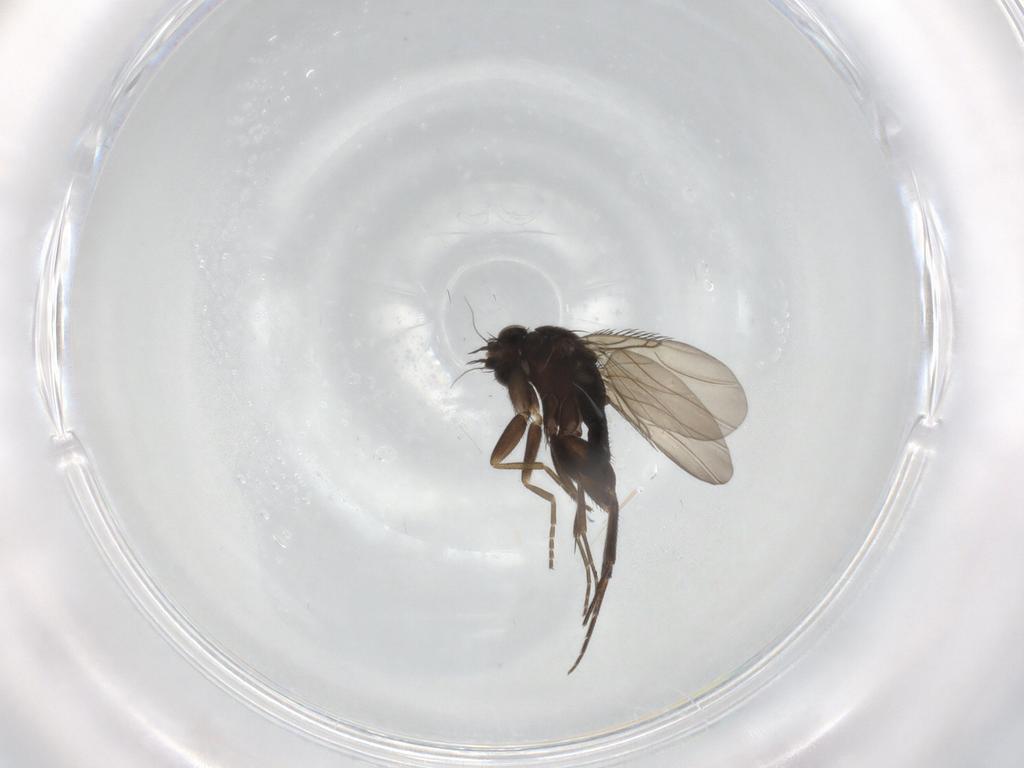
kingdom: Animalia
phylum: Arthropoda
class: Insecta
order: Diptera
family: Phoridae
